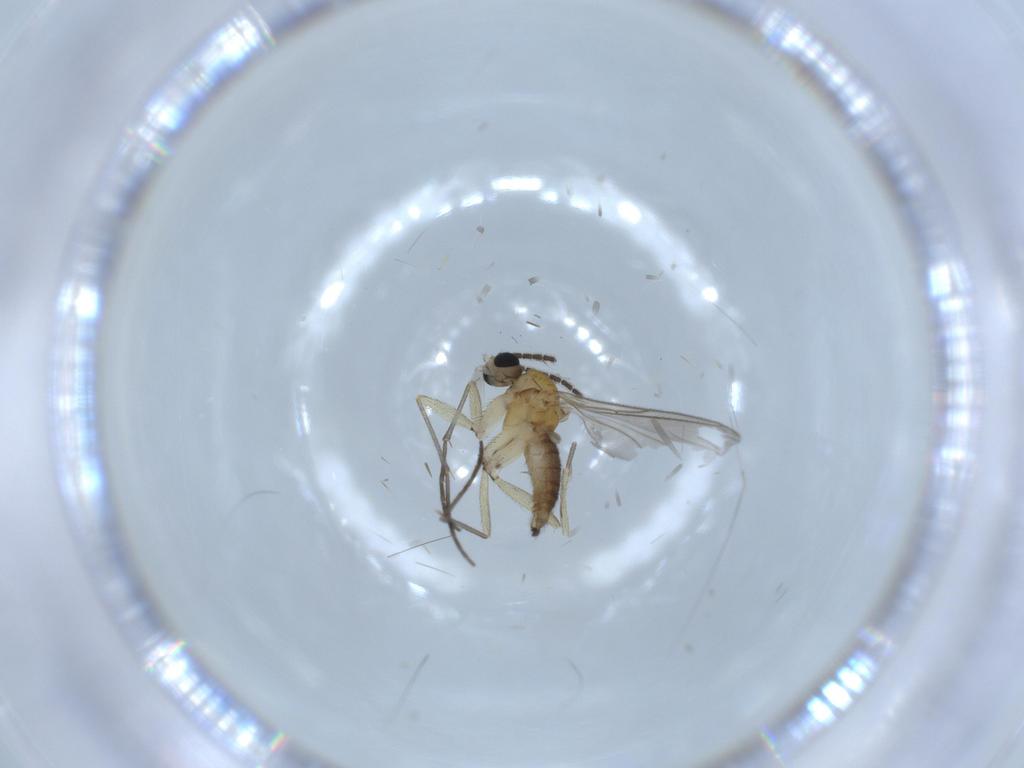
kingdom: Animalia
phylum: Arthropoda
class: Insecta
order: Diptera
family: Sciaridae
